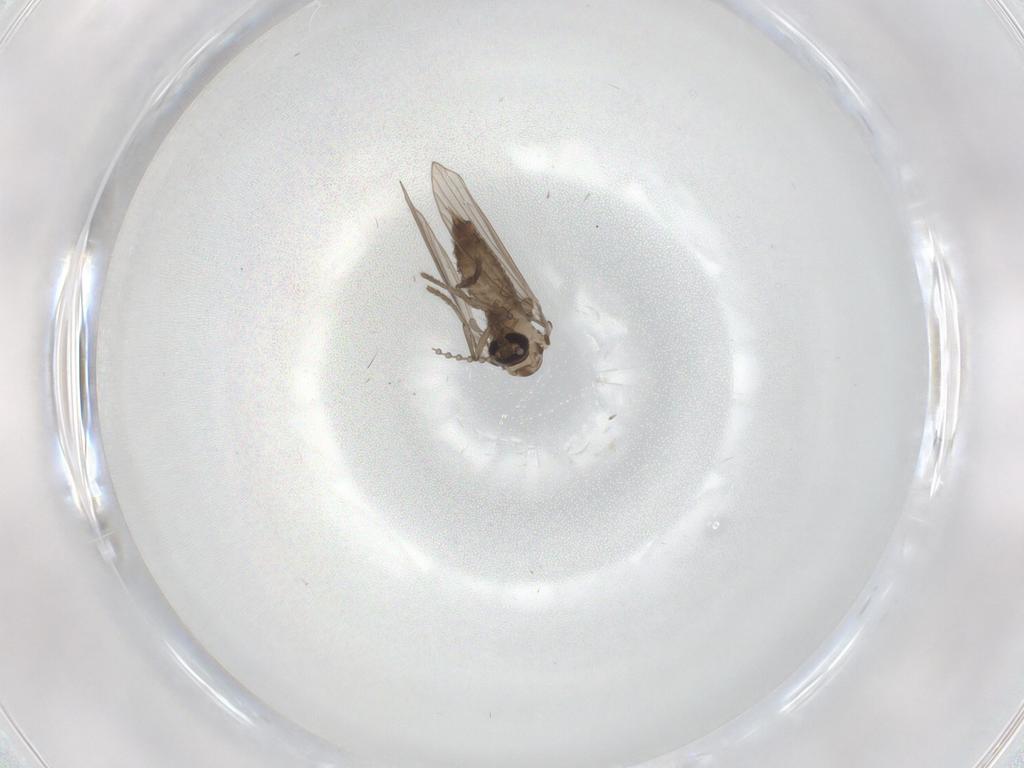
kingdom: Animalia
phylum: Arthropoda
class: Insecta
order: Diptera
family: Psychodidae
